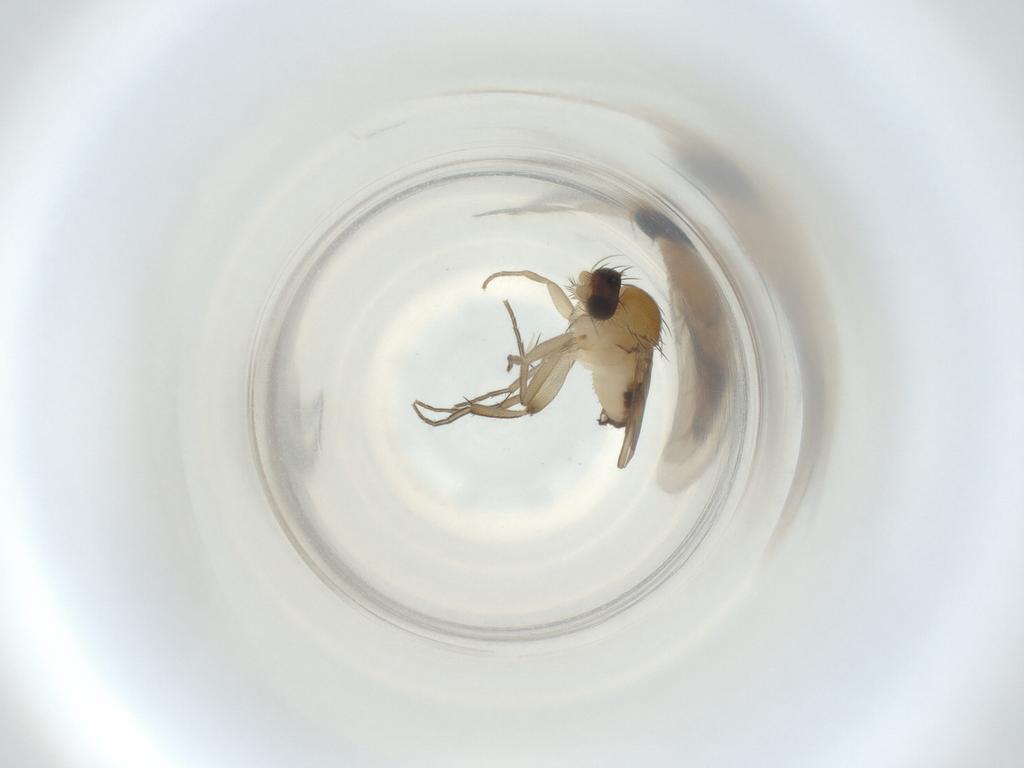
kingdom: Animalia
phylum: Arthropoda
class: Insecta
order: Diptera
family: Phoridae
